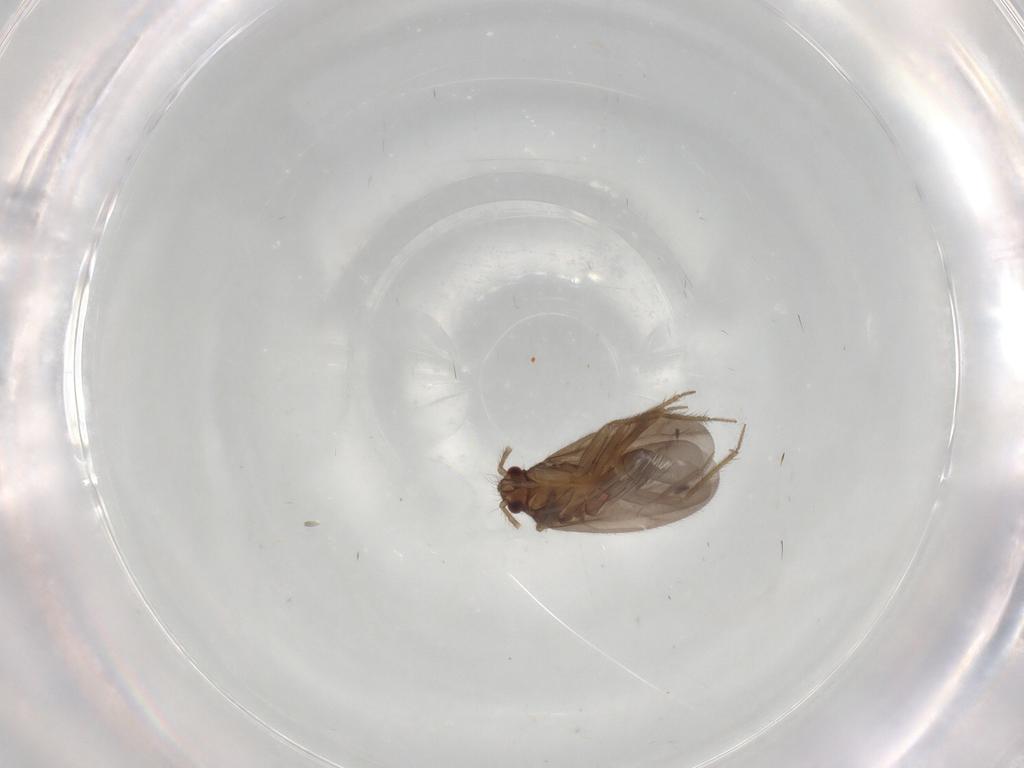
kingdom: Animalia
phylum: Arthropoda
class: Insecta
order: Hemiptera
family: Ceratocombidae
